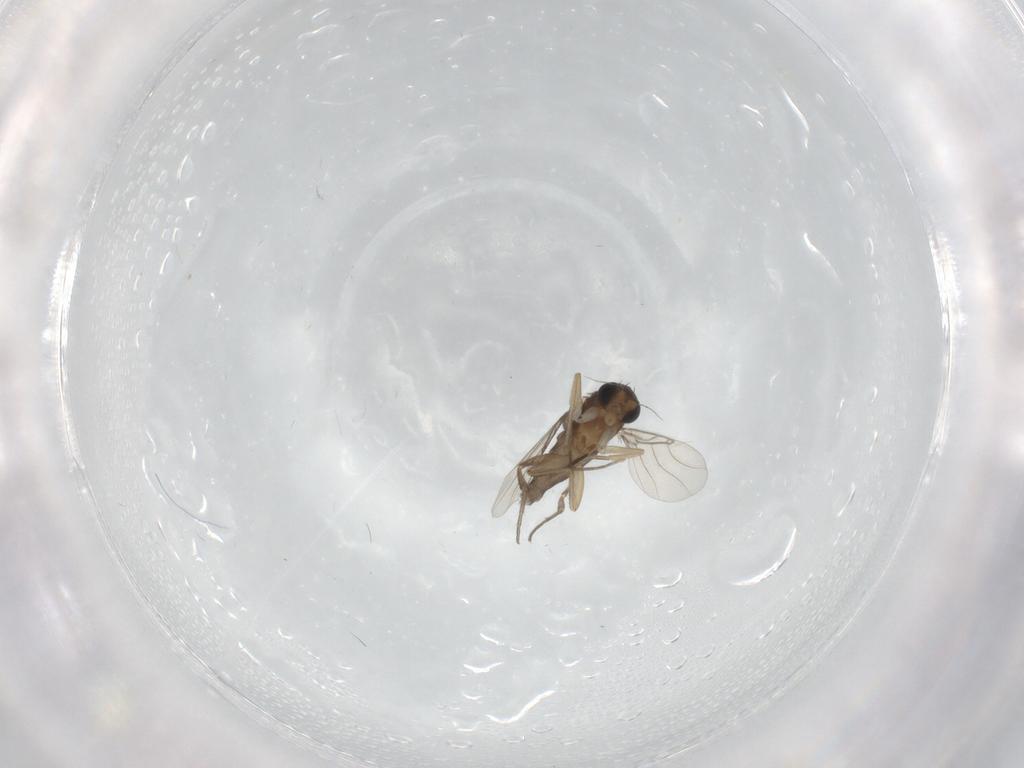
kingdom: Animalia
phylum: Arthropoda
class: Insecta
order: Diptera
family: Phoridae
